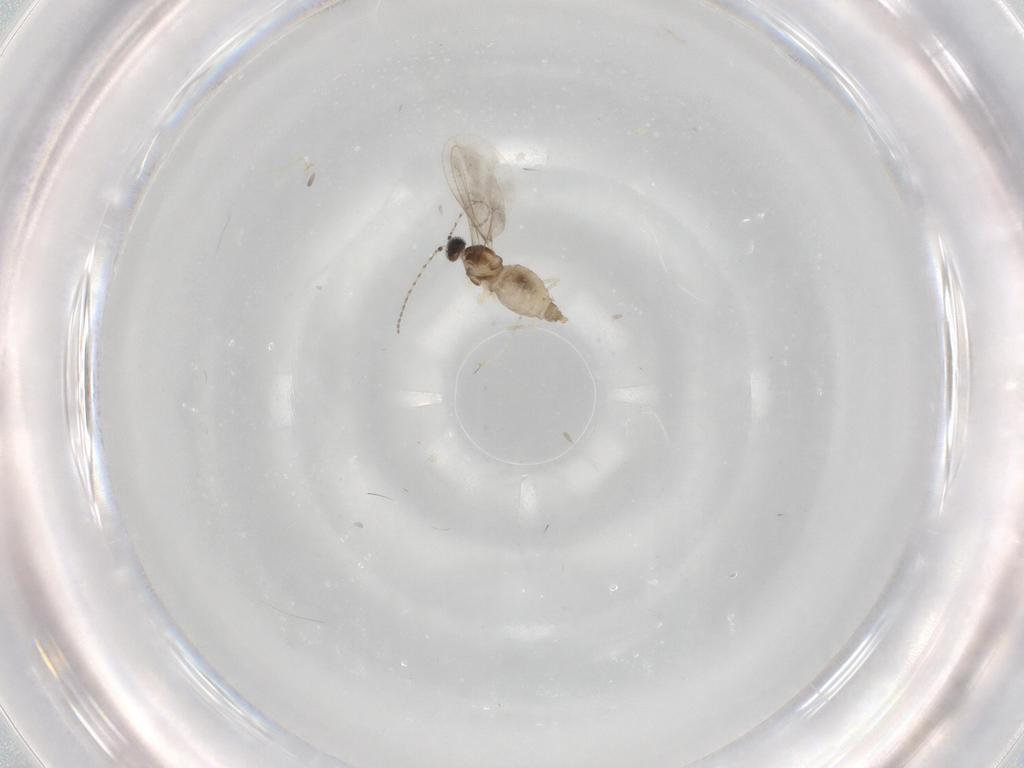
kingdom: Animalia
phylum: Arthropoda
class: Insecta
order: Diptera
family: Cecidomyiidae
